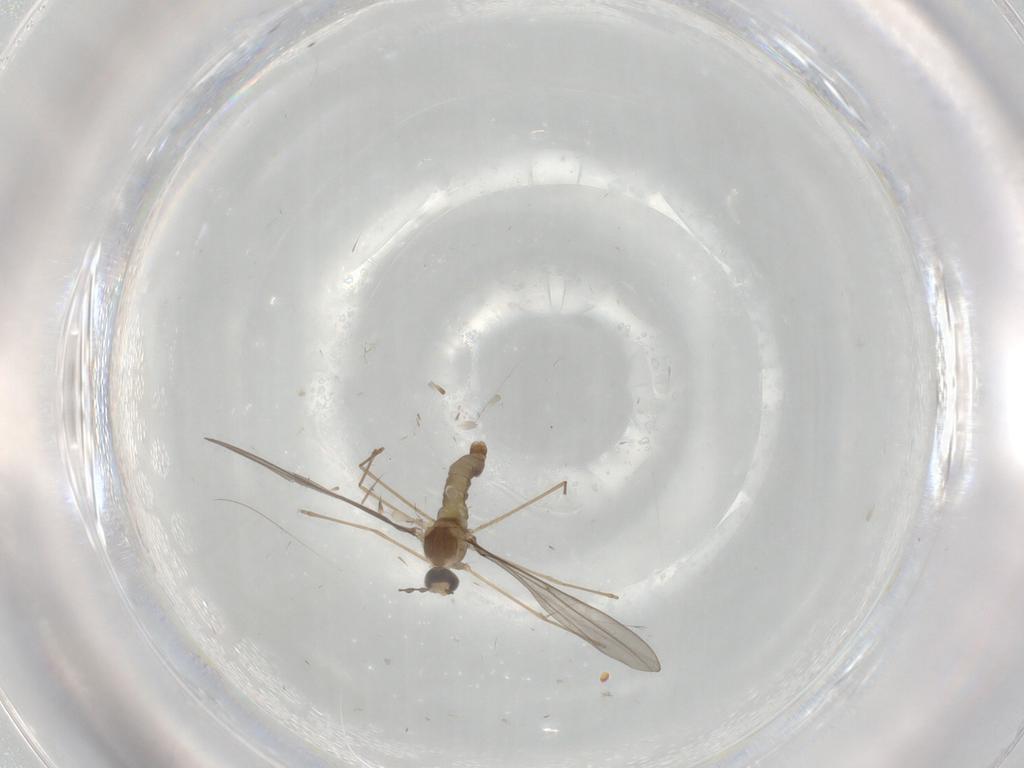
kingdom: Animalia
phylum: Arthropoda
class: Insecta
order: Diptera
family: Cecidomyiidae
